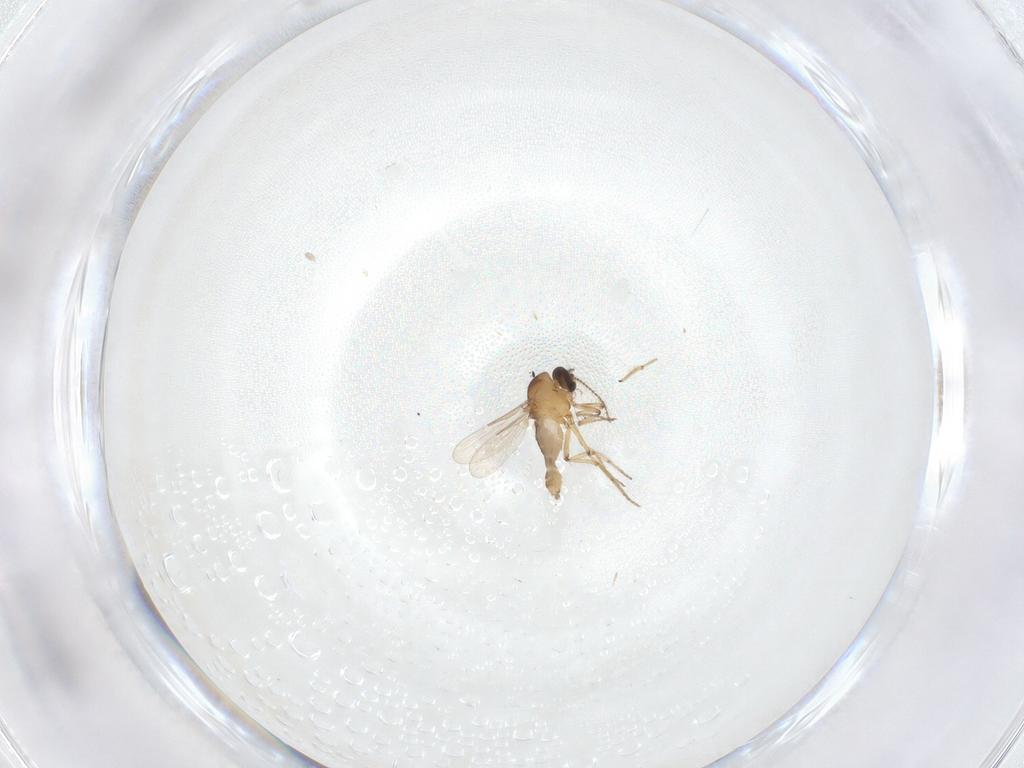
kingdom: Animalia
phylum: Arthropoda
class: Insecta
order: Diptera
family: Ceratopogonidae
